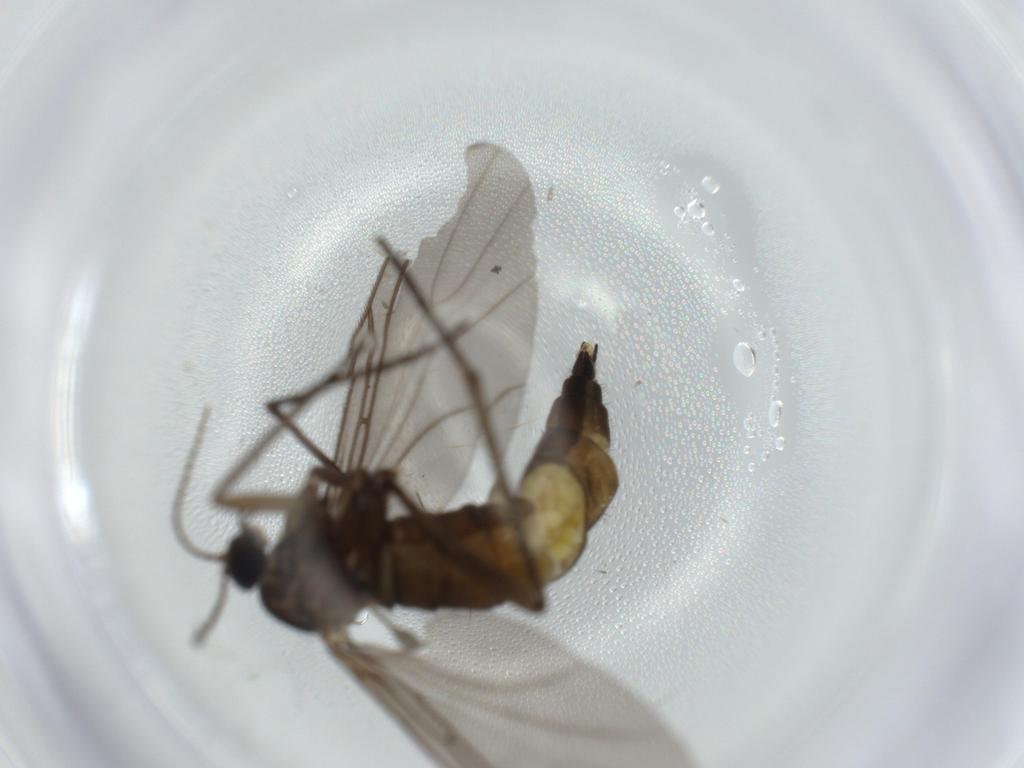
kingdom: Animalia
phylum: Arthropoda
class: Insecta
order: Diptera
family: Sciaridae
